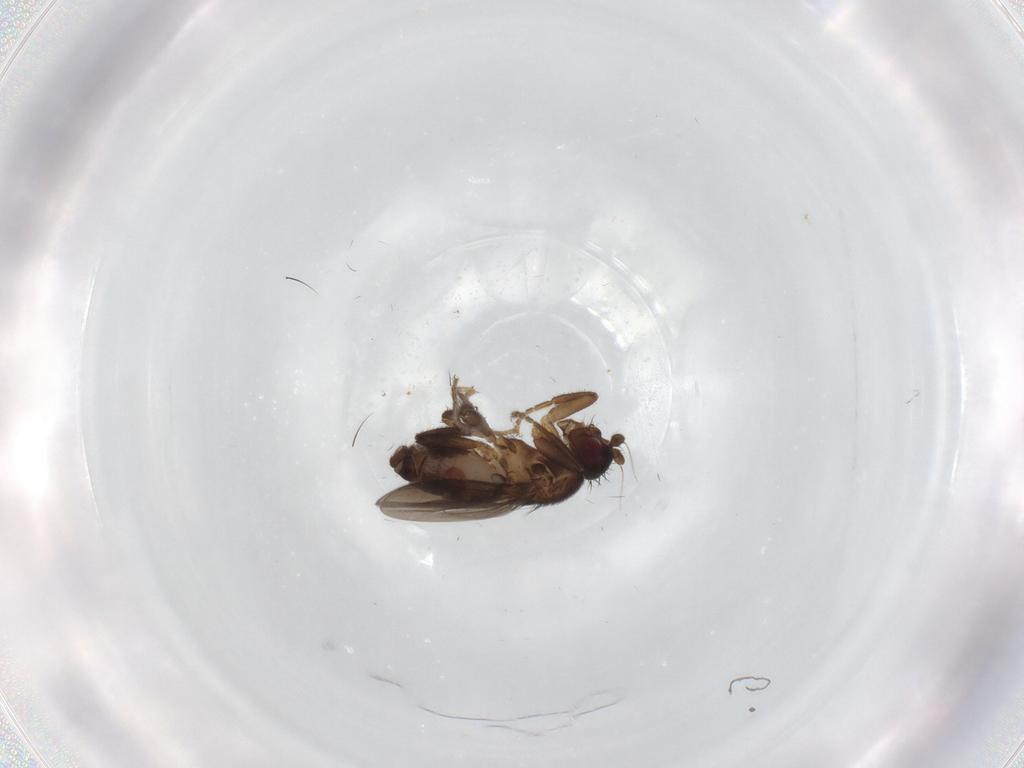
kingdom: Animalia
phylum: Arthropoda
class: Insecta
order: Diptera
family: Sphaeroceridae
